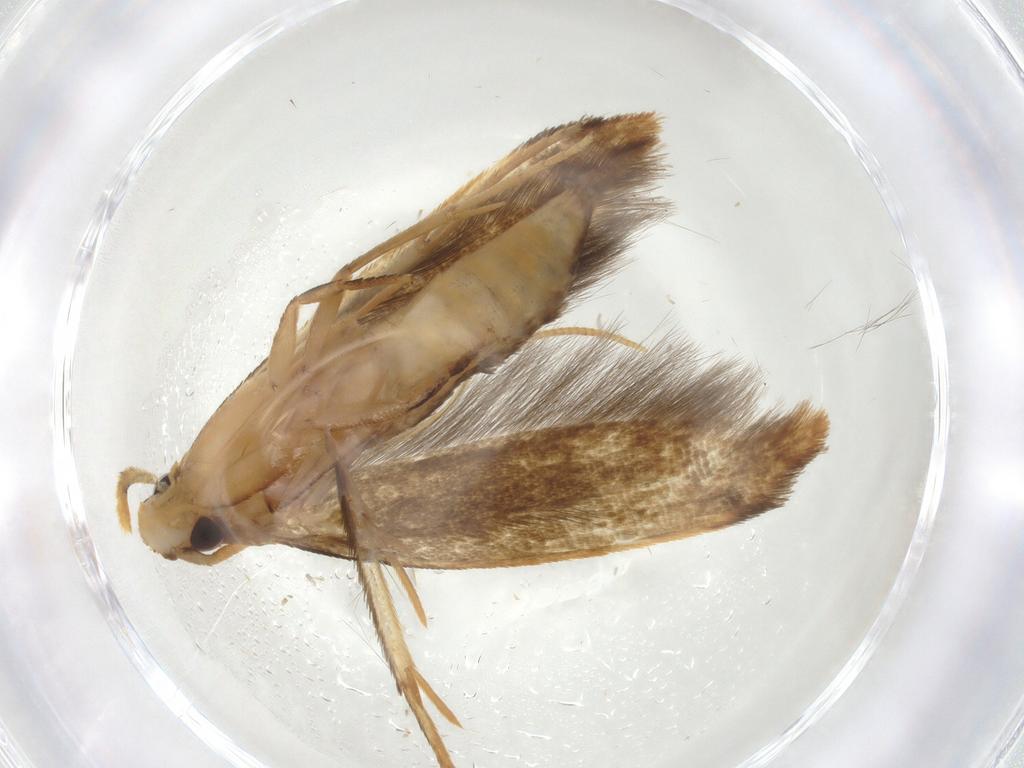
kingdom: Animalia
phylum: Arthropoda
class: Insecta
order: Lepidoptera
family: Tineidae
